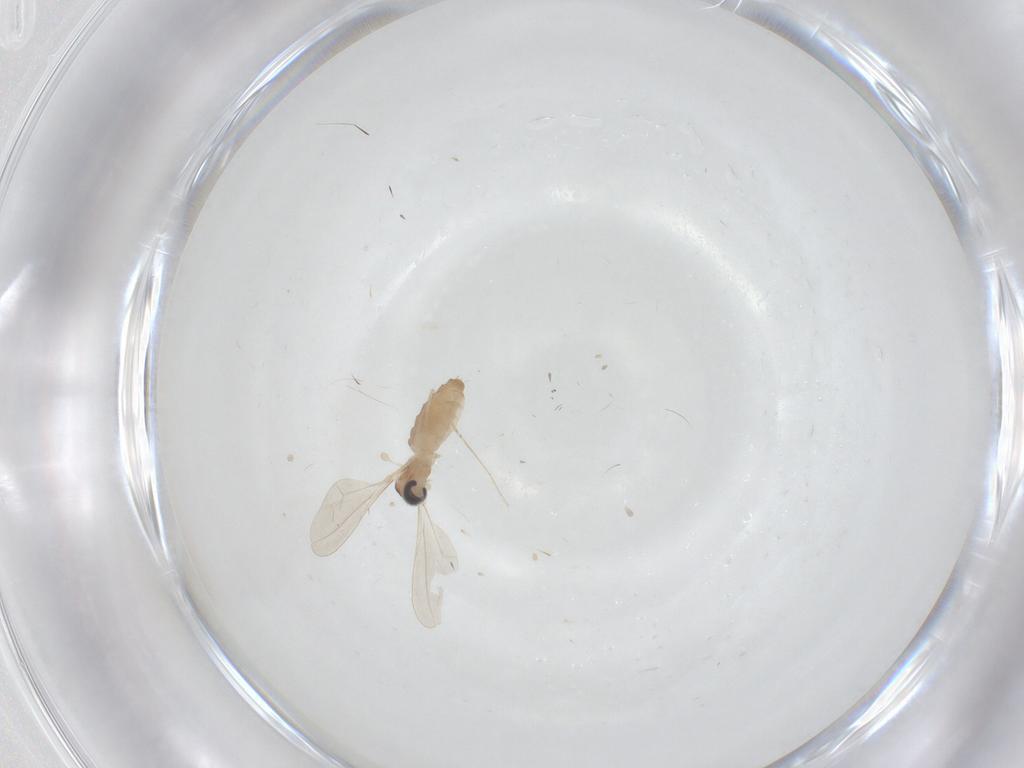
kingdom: Animalia
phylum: Arthropoda
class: Insecta
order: Diptera
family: Cecidomyiidae
